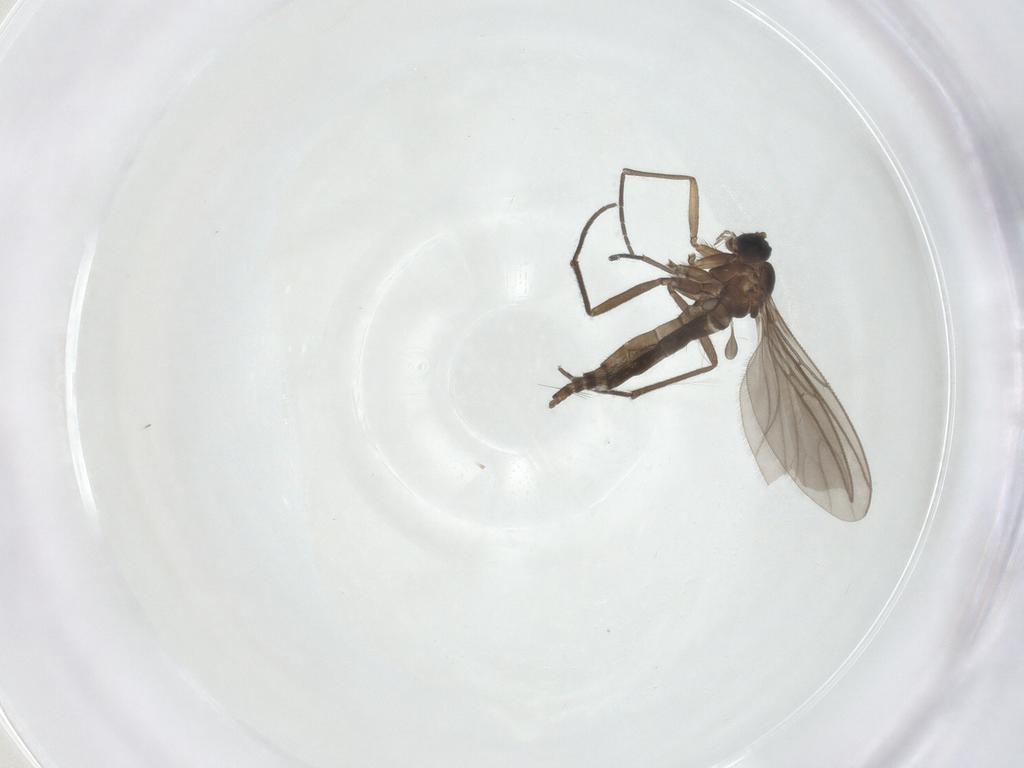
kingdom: Animalia
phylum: Arthropoda
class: Insecta
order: Diptera
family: Sciaridae
